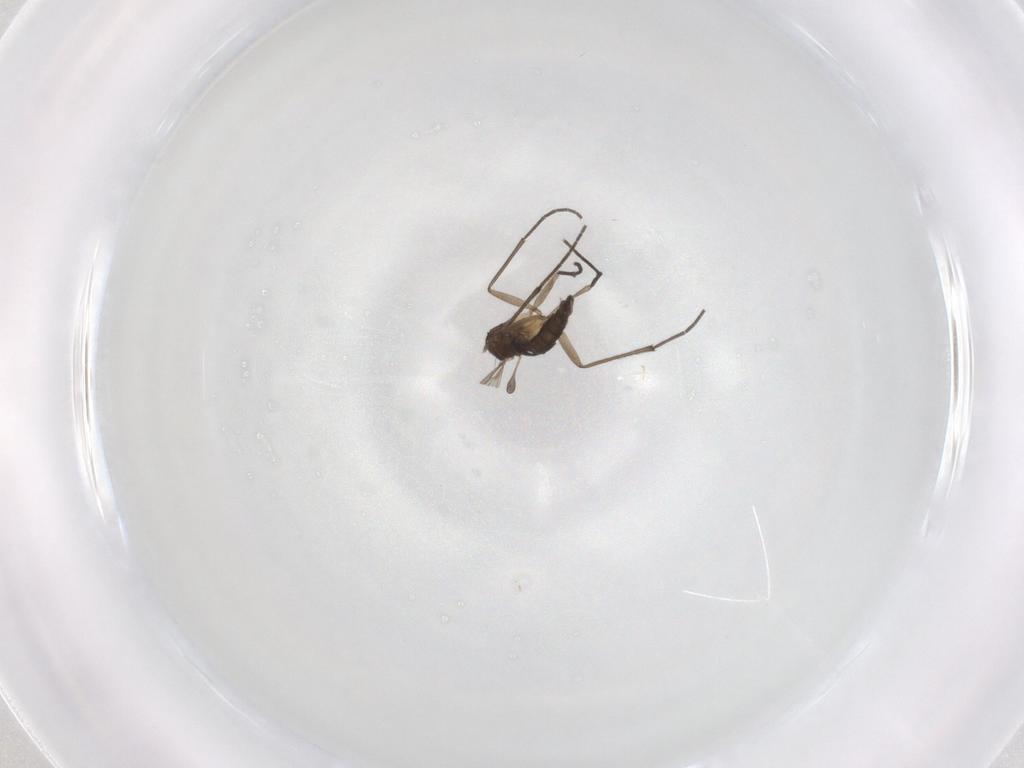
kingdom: Animalia
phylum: Arthropoda
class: Insecta
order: Diptera
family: Sciaridae
